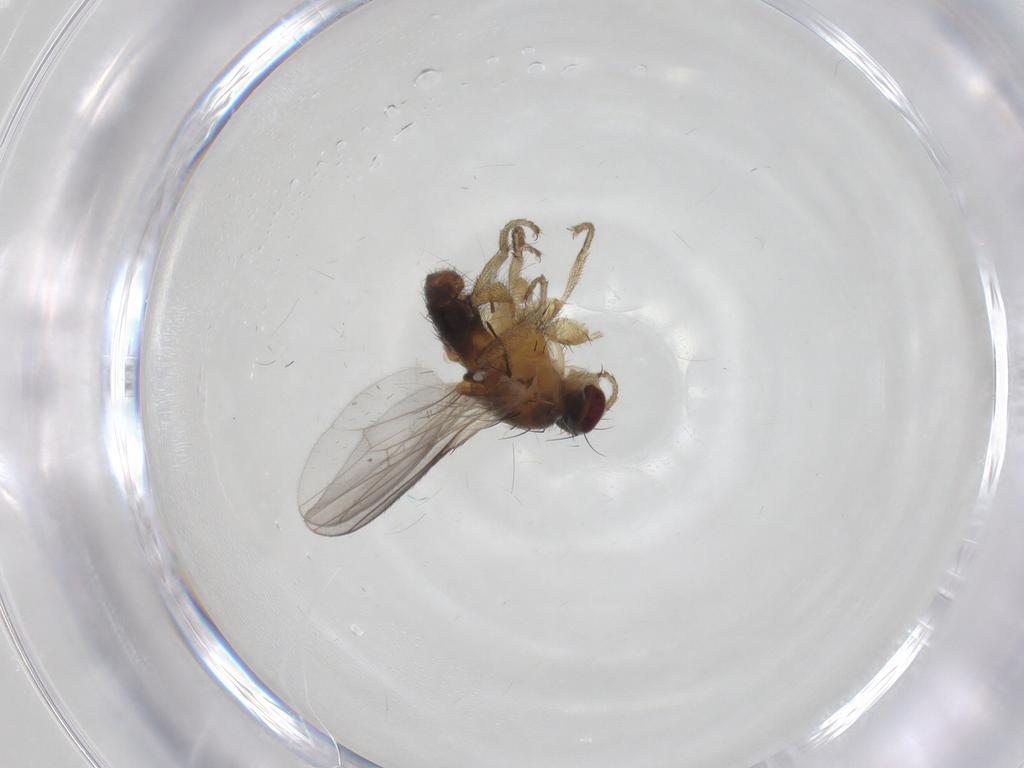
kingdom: Animalia
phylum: Arthropoda
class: Insecta
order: Diptera
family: Heleomyzidae
